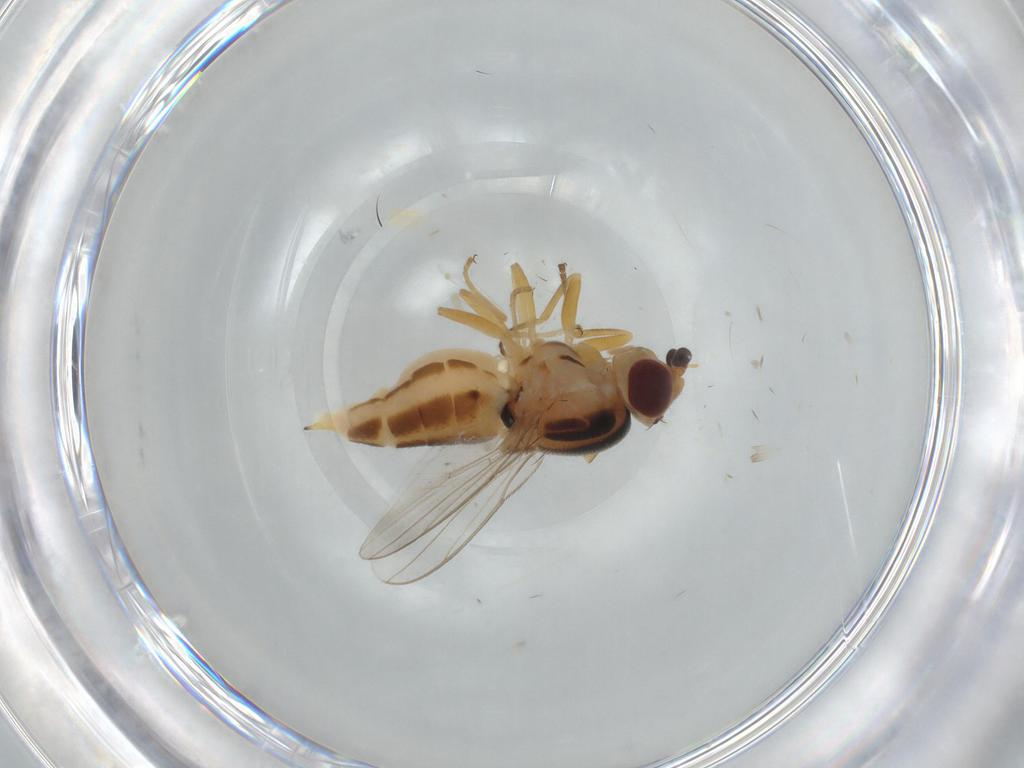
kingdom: Animalia
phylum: Arthropoda
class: Insecta
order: Diptera
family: Chloropidae
